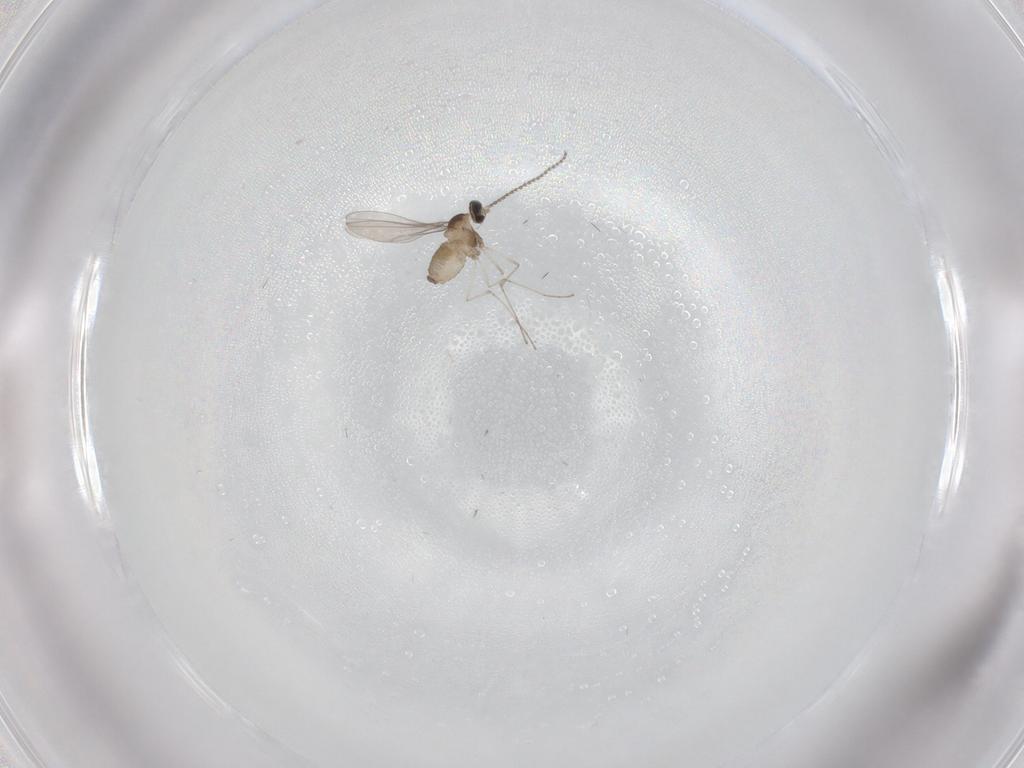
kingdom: Animalia
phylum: Arthropoda
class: Insecta
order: Diptera
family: Cecidomyiidae
